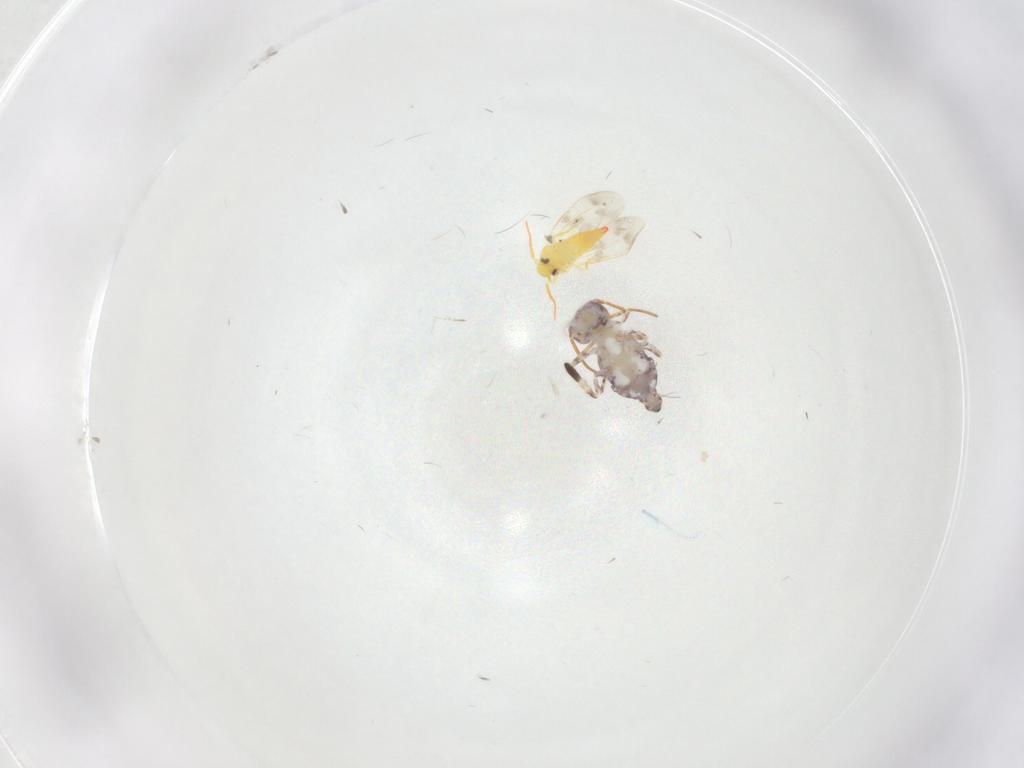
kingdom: Animalia
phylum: Arthropoda
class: Collembola
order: Symphypleona
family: Bourletiellidae
